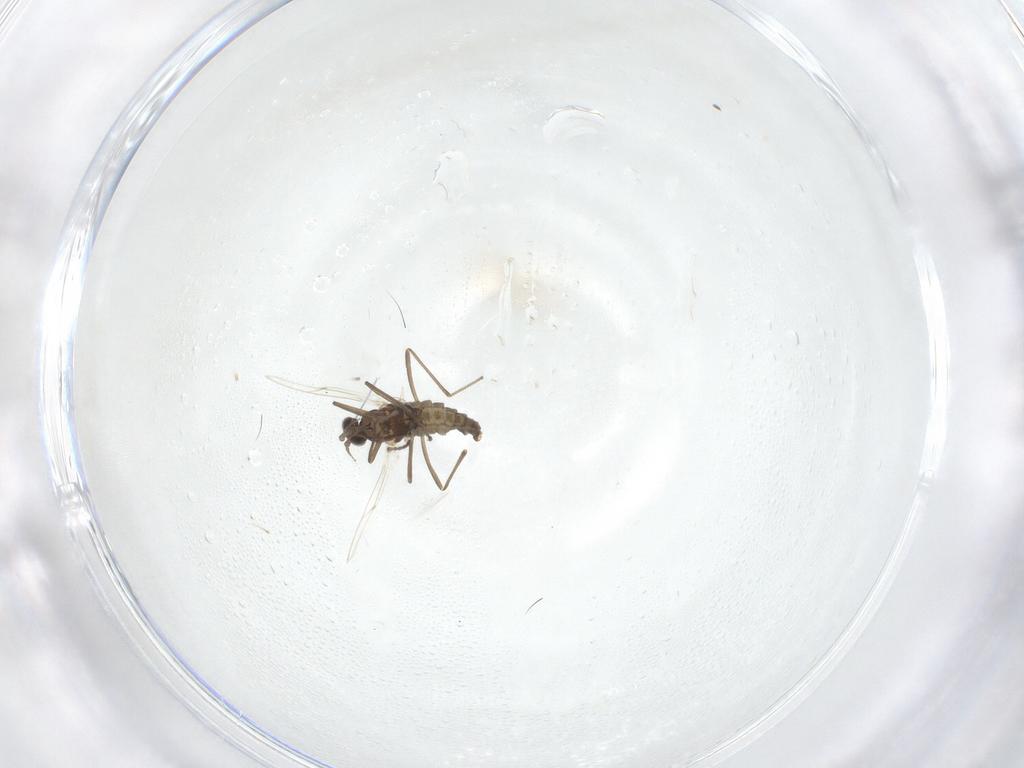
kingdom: Animalia
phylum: Arthropoda
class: Insecta
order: Diptera
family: Cecidomyiidae
